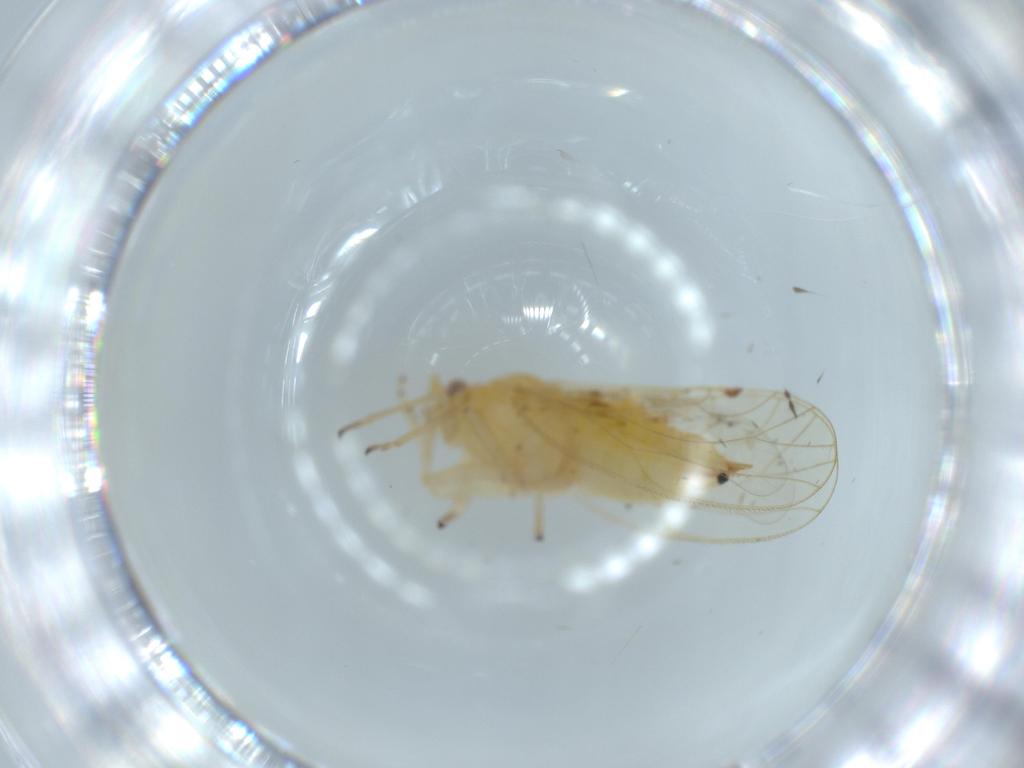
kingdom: Animalia
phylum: Arthropoda
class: Insecta
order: Hemiptera
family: Psyllidae
